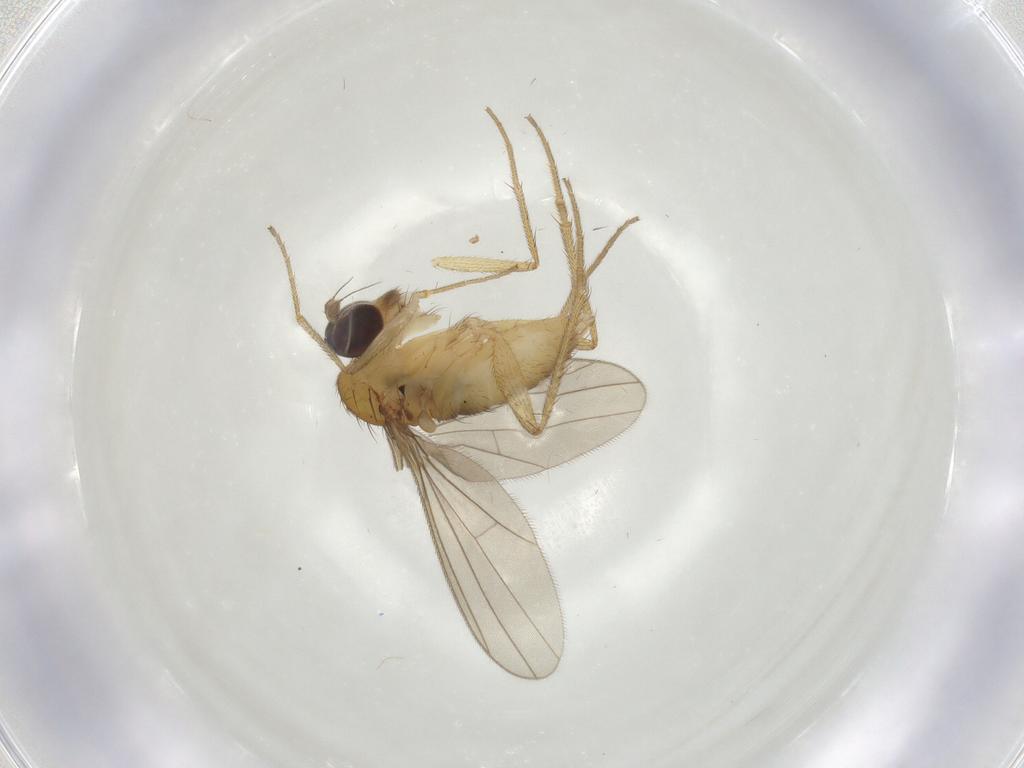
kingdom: Animalia
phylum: Arthropoda
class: Insecta
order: Diptera
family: Dolichopodidae
